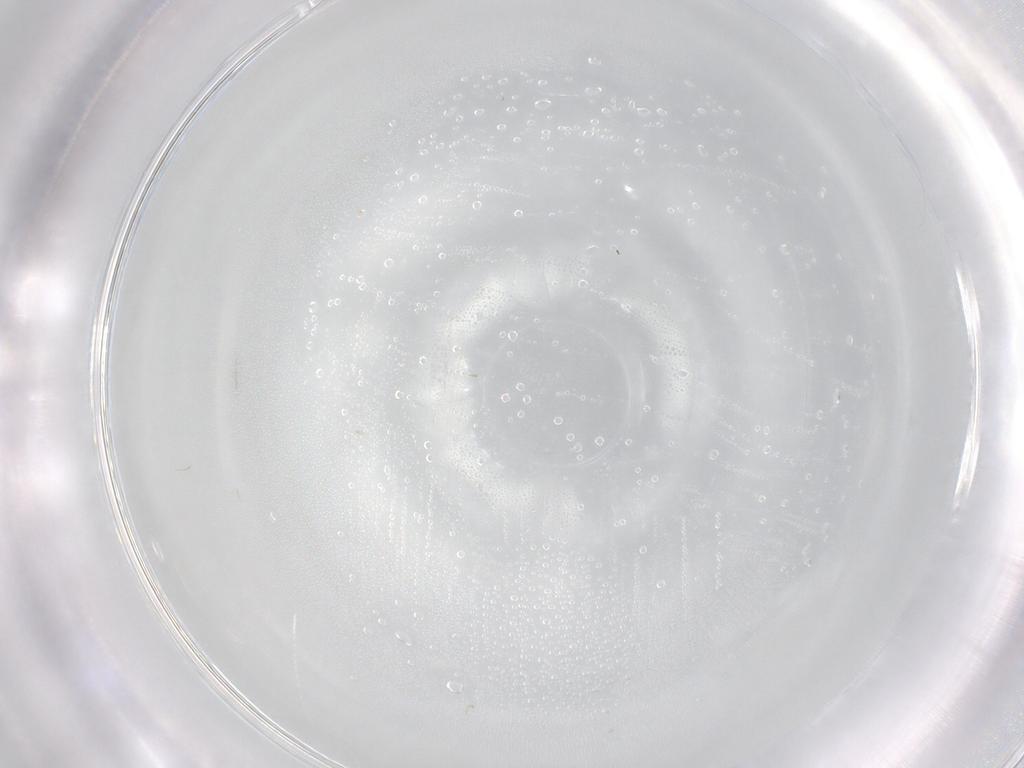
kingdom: Animalia
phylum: Arthropoda
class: Insecta
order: Diptera
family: Cecidomyiidae
